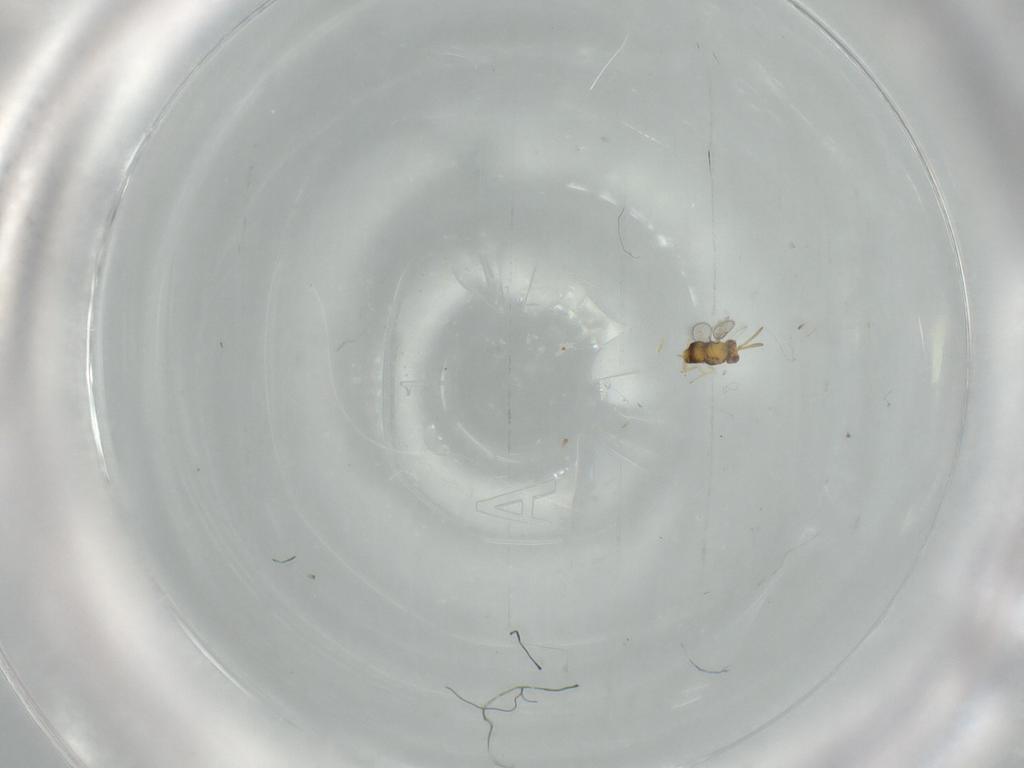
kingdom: Animalia
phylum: Arthropoda
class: Insecta
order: Hymenoptera
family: Aphelinidae
